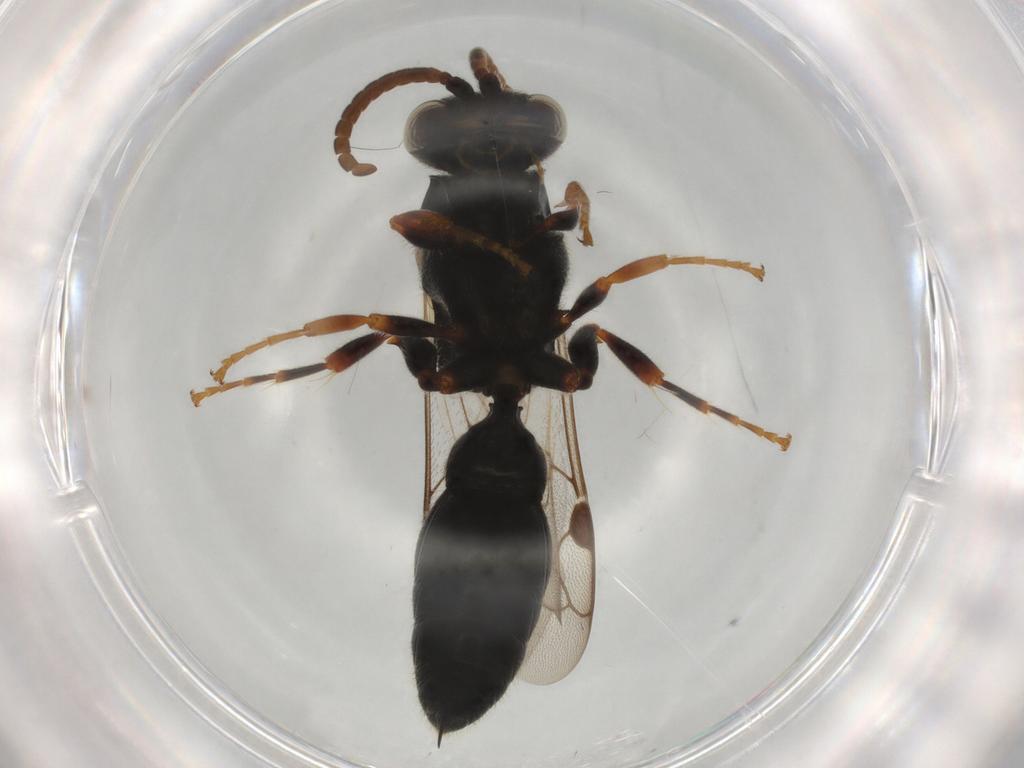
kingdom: Animalia
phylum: Arthropoda
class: Insecta
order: Hymenoptera
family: Tiphiidae
